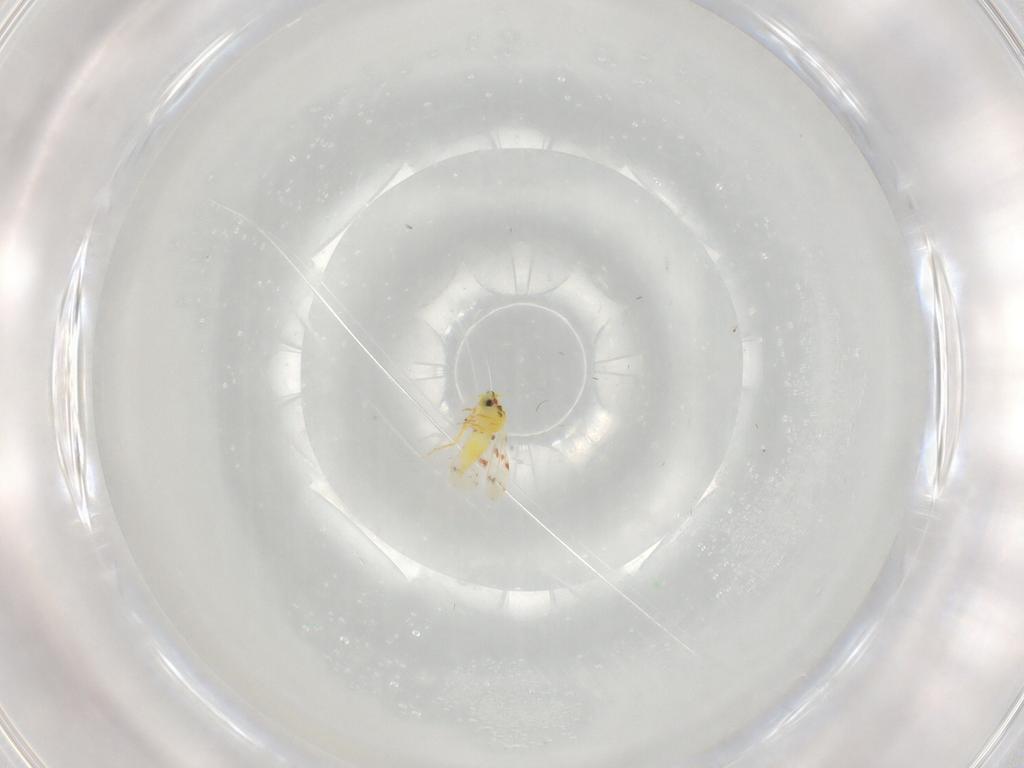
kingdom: Animalia
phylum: Arthropoda
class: Insecta
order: Hemiptera
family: Aleyrodidae
